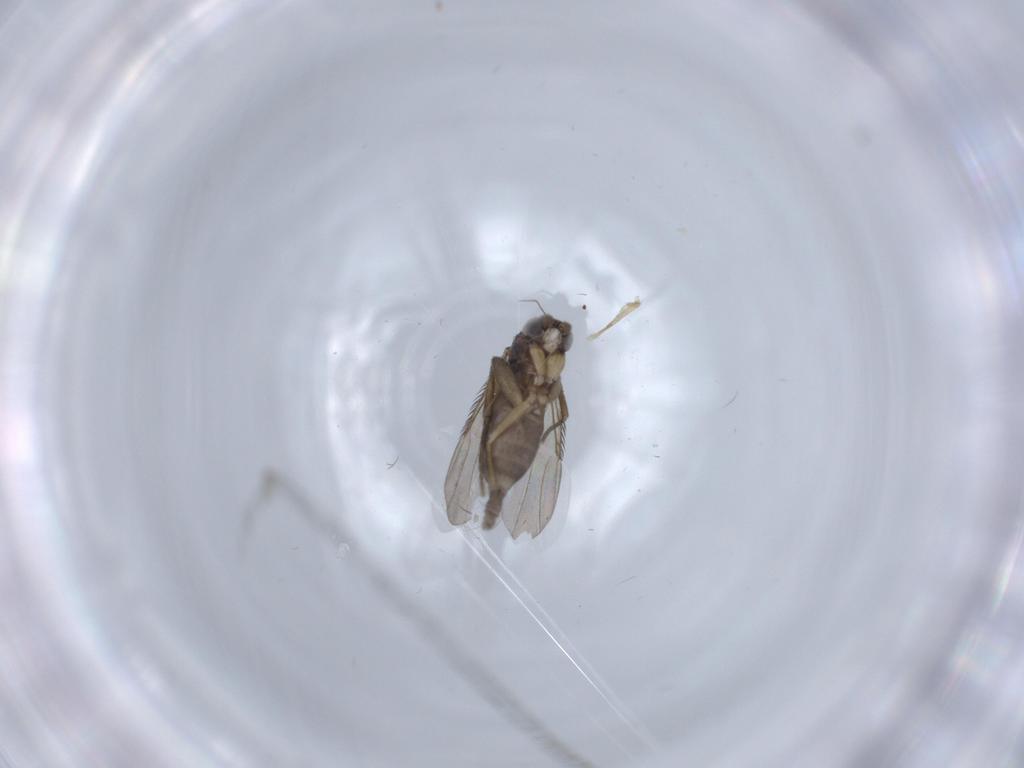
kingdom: Animalia
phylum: Arthropoda
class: Insecta
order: Diptera
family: Phoridae
